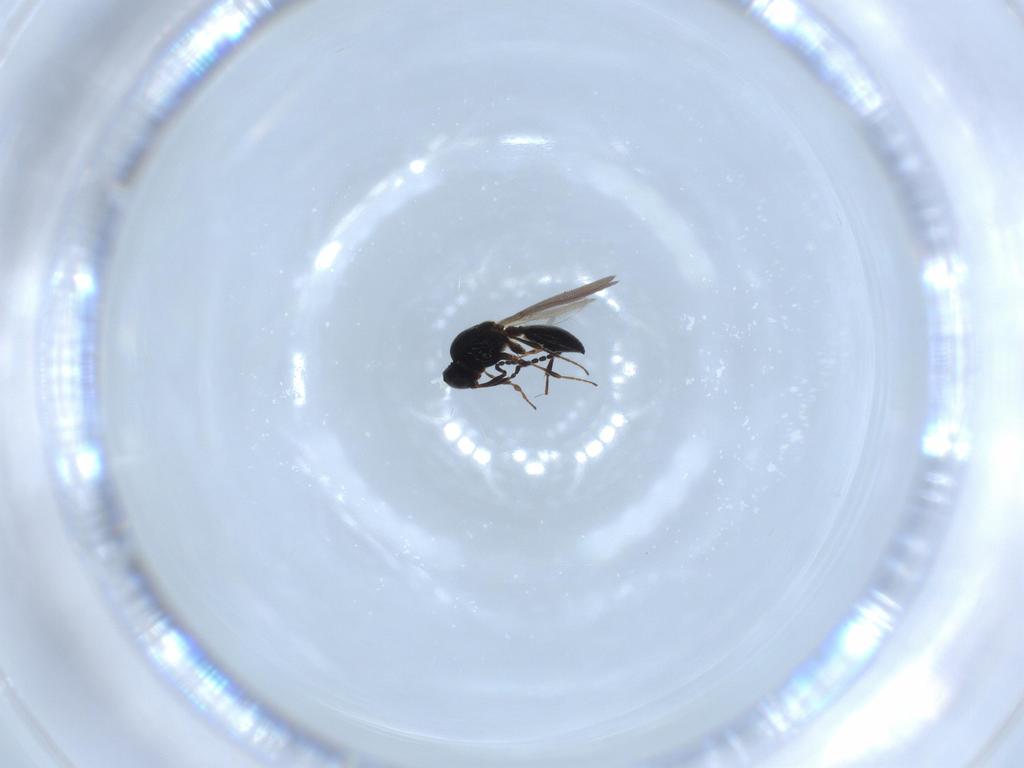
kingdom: Animalia
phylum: Arthropoda
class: Insecta
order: Hymenoptera
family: Platygastridae
